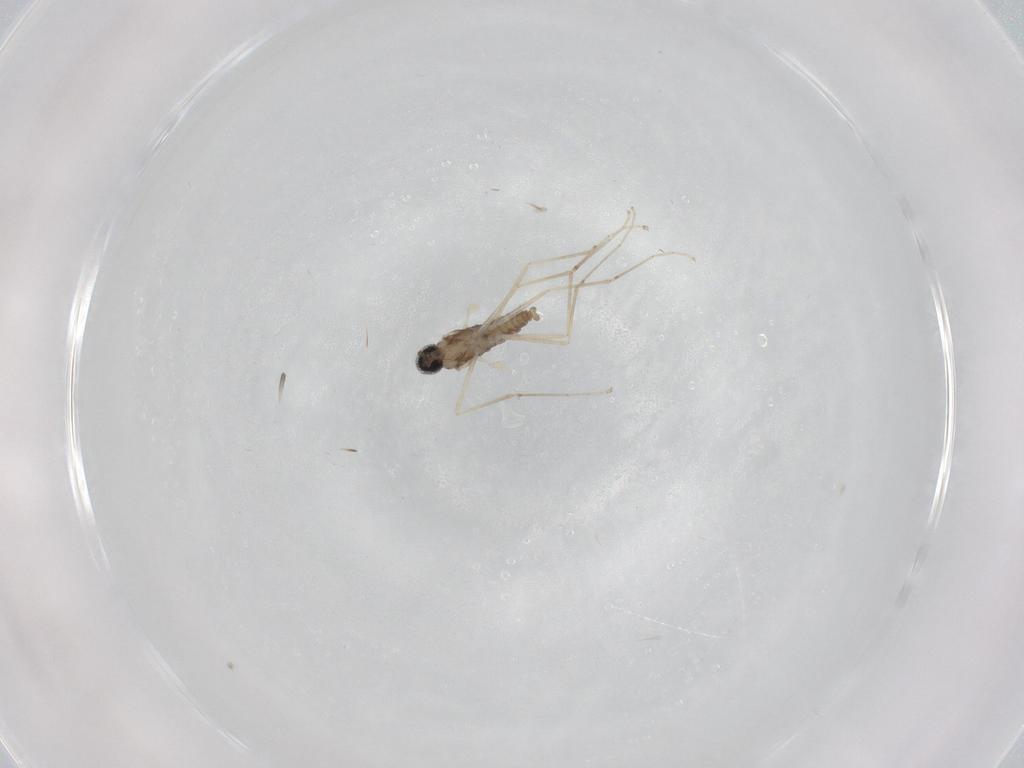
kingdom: Animalia
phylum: Arthropoda
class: Insecta
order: Diptera
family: Cecidomyiidae
